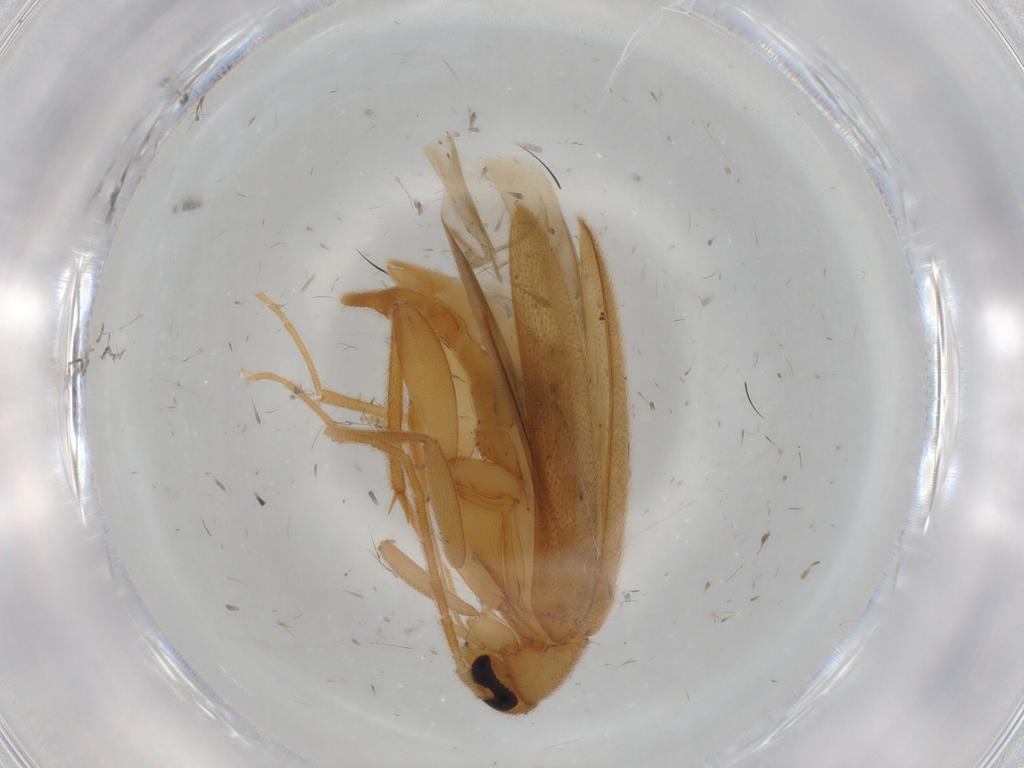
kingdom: Animalia
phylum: Arthropoda
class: Insecta
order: Coleoptera
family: Scraptiidae
